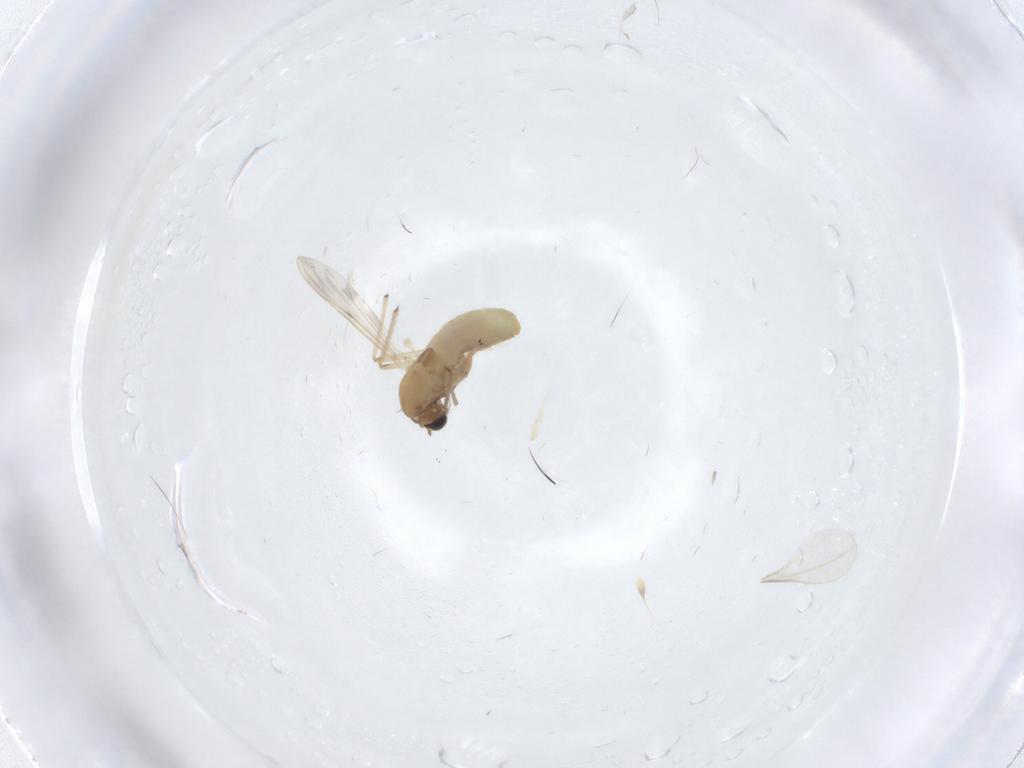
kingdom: Animalia
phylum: Arthropoda
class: Insecta
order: Diptera
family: Chironomidae
